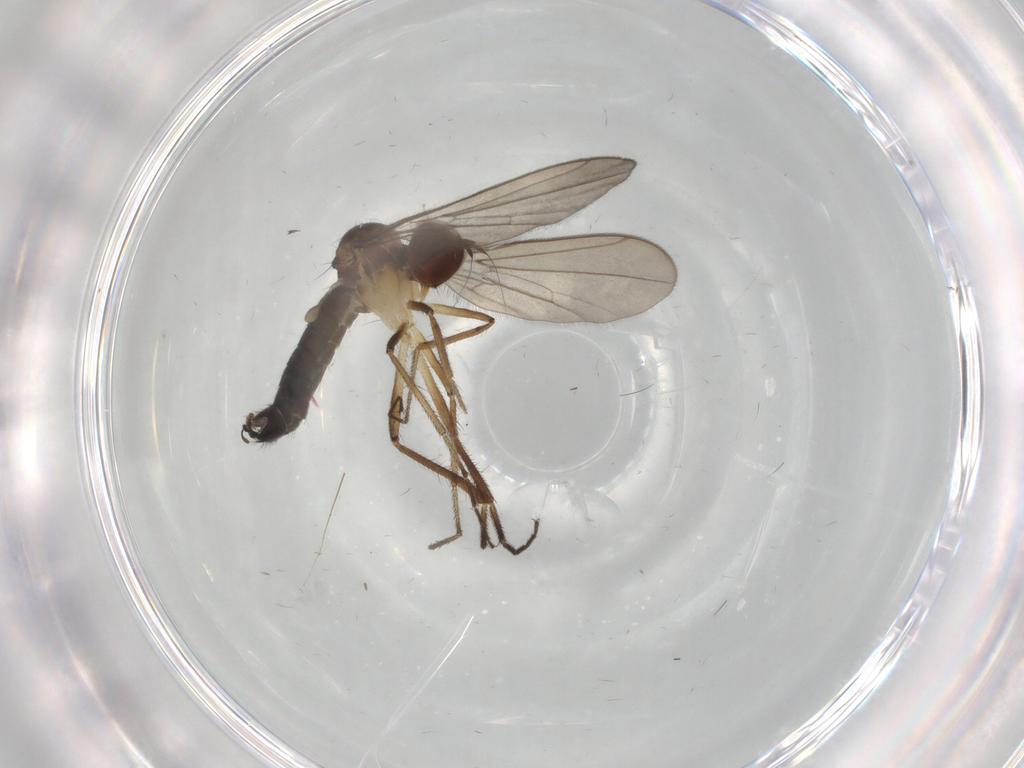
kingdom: Animalia
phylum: Arthropoda
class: Insecta
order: Diptera
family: Hybotidae
